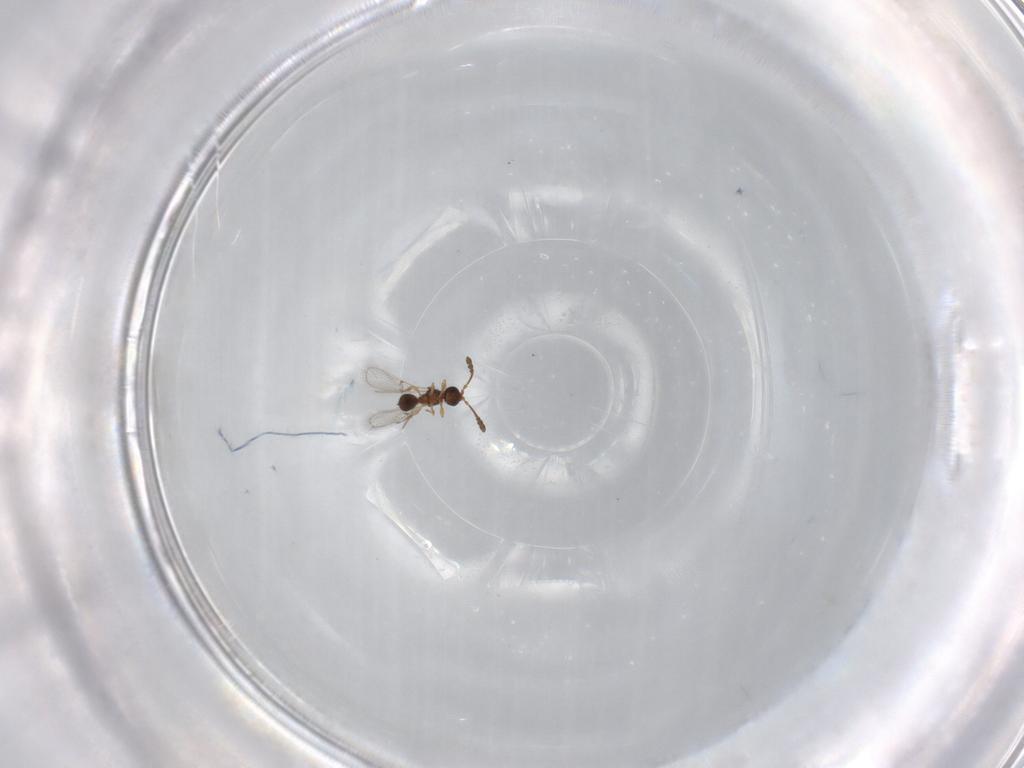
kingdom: Animalia
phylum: Arthropoda
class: Insecta
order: Hymenoptera
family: Diapriidae
